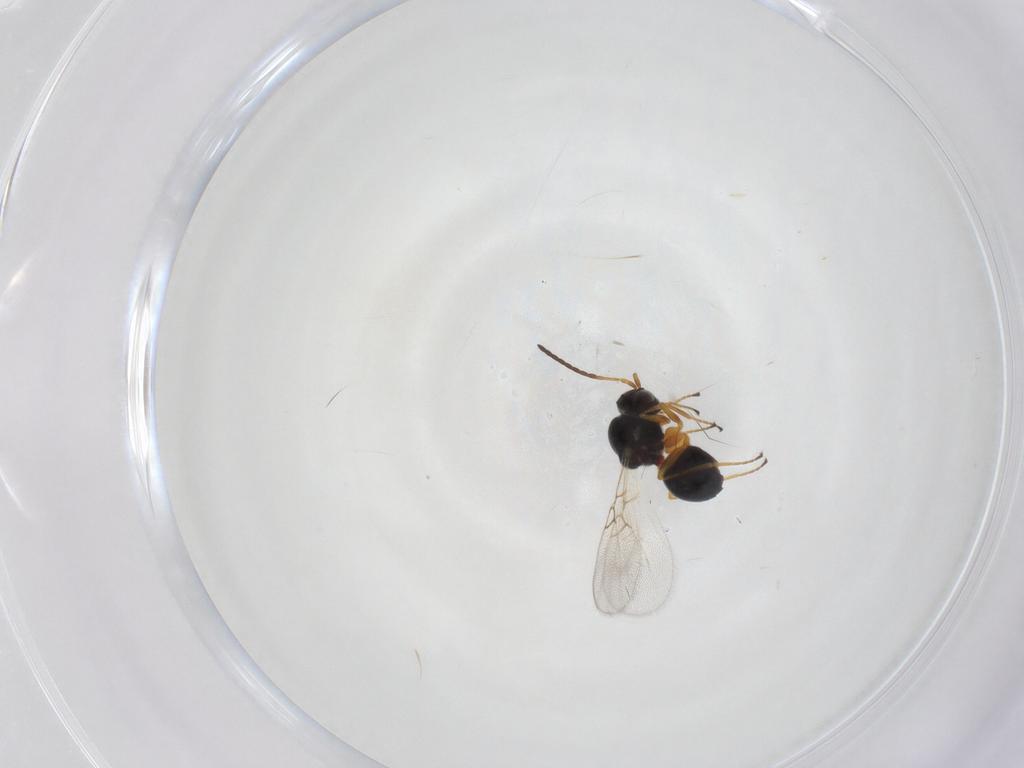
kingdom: Animalia
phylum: Arthropoda
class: Insecta
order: Hymenoptera
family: Figitidae
